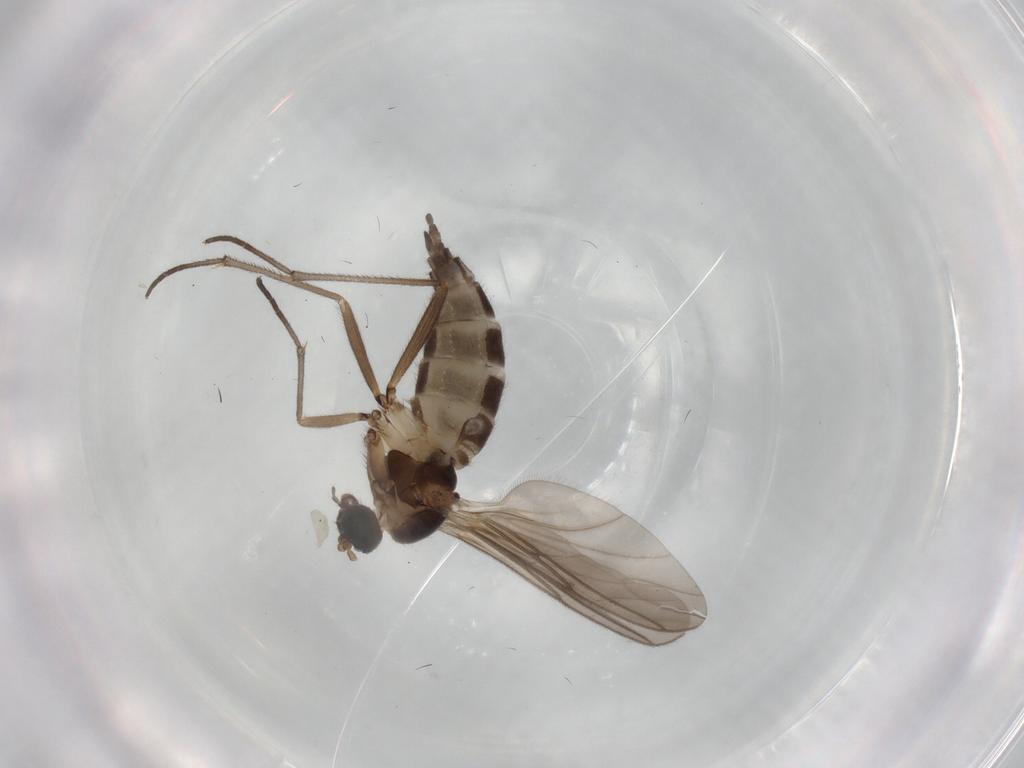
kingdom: Animalia
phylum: Arthropoda
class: Insecta
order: Diptera
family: Sciaridae
